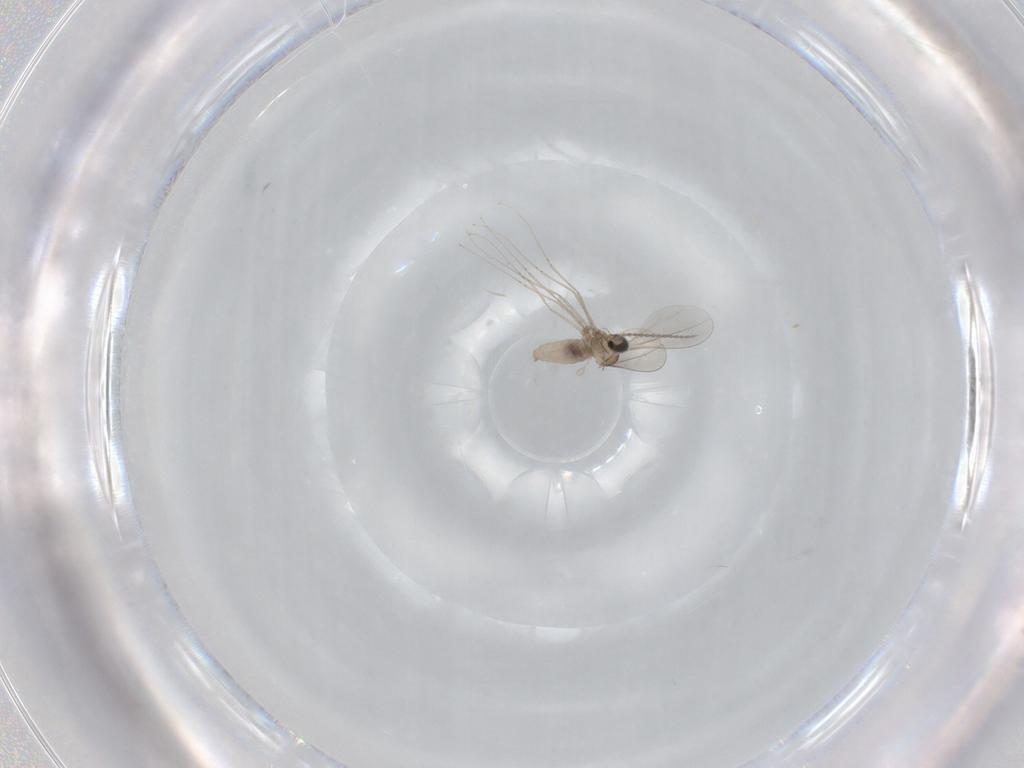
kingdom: Animalia
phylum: Arthropoda
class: Insecta
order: Diptera
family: Cecidomyiidae
